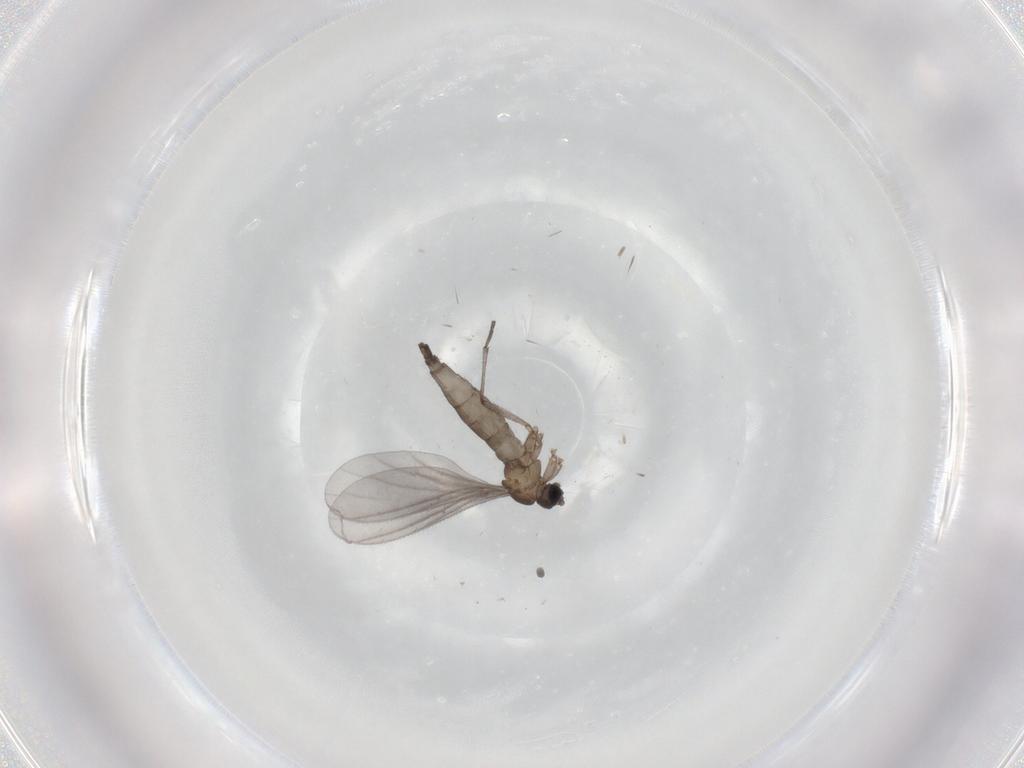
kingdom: Animalia
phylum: Arthropoda
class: Insecta
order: Diptera
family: Sciaridae
